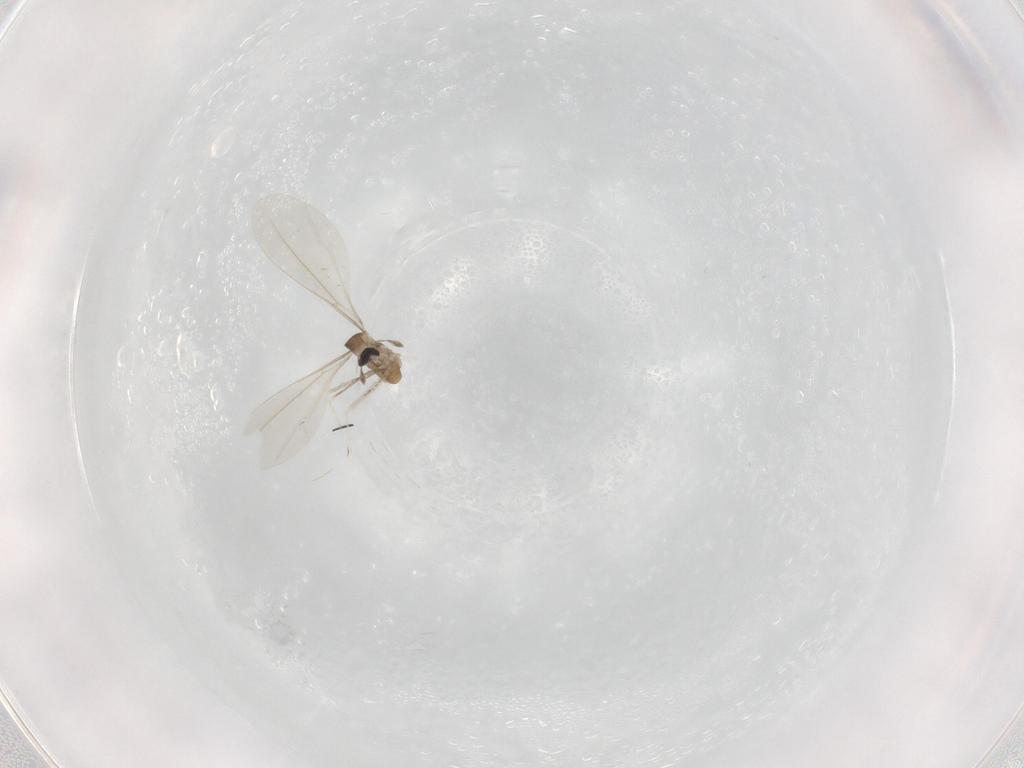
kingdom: Animalia
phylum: Arthropoda
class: Insecta
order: Diptera
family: Cecidomyiidae
